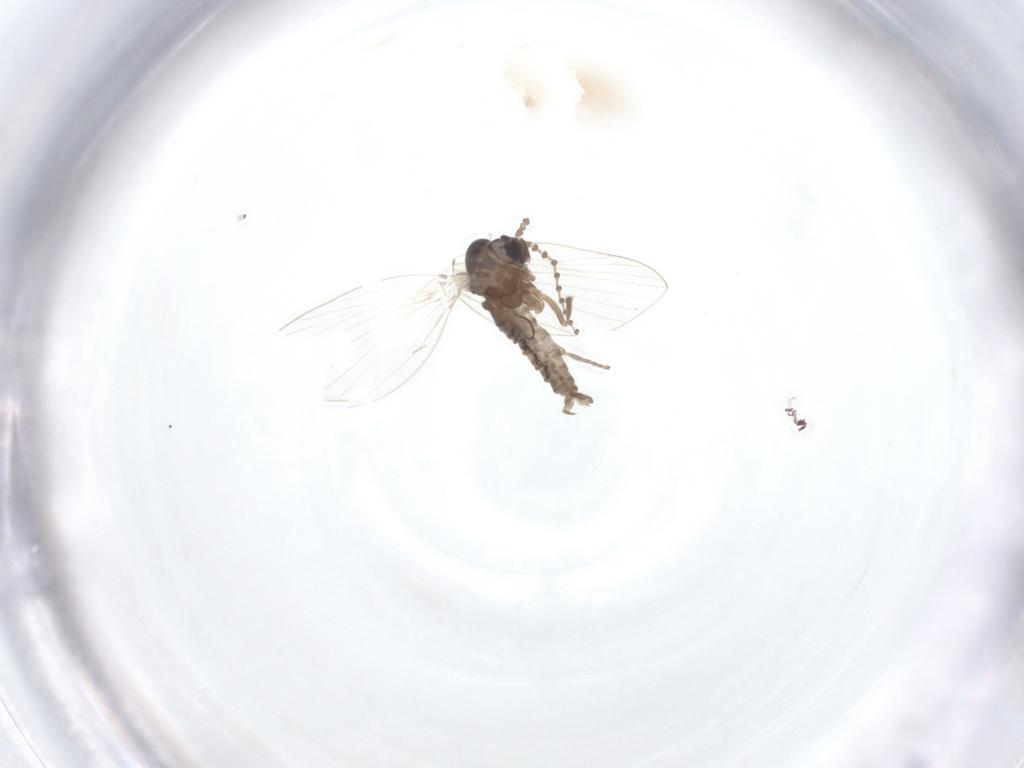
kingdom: Animalia
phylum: Arthropoda
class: Insecta
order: Diptera
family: Psychodidae
